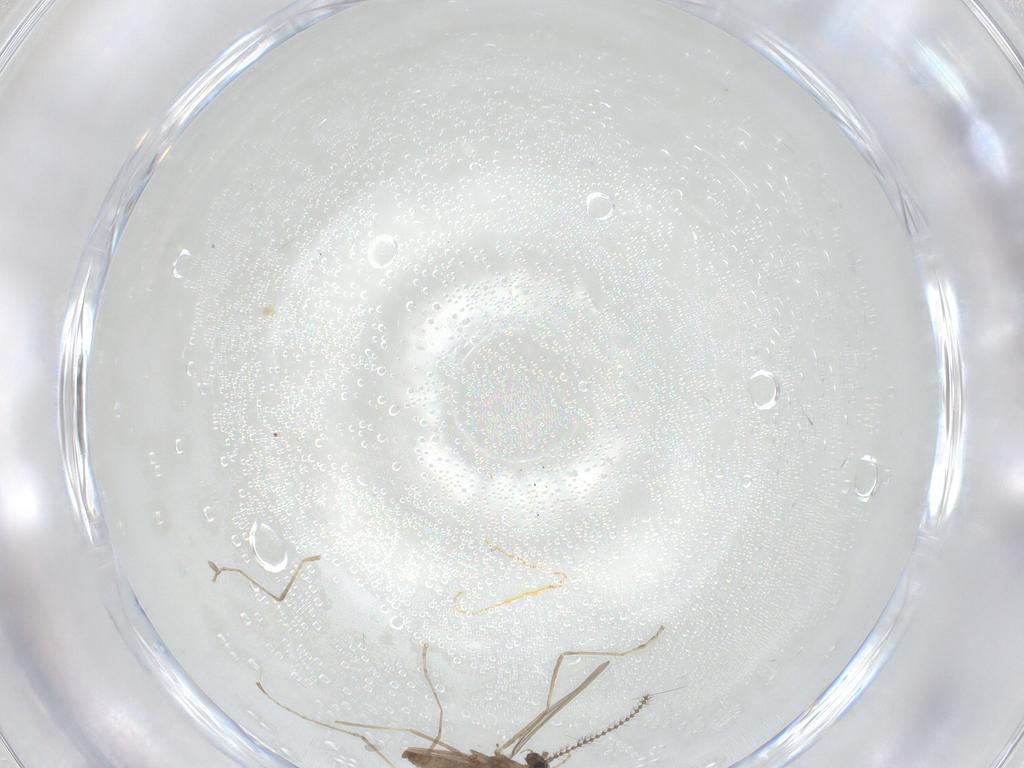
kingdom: Animalia
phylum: Arthropoda
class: Insecta
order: Diptera
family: Cecidomyiidae
